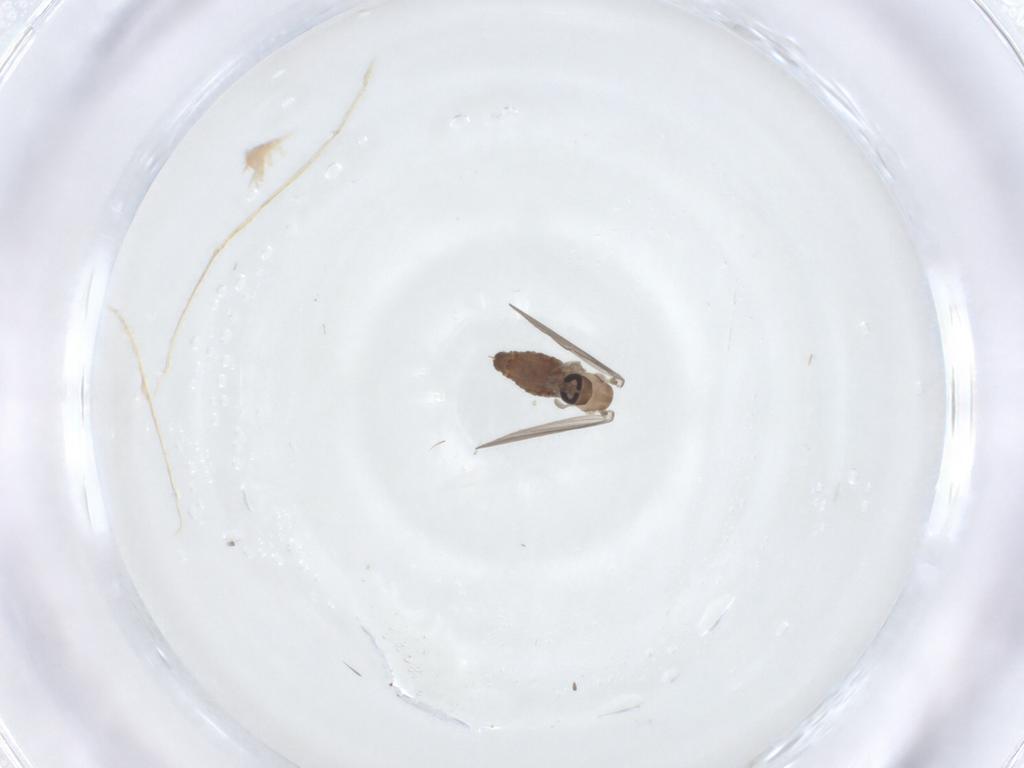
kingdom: Animalia
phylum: Arthropoda
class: Insecta
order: Diptera
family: Psychodidae
